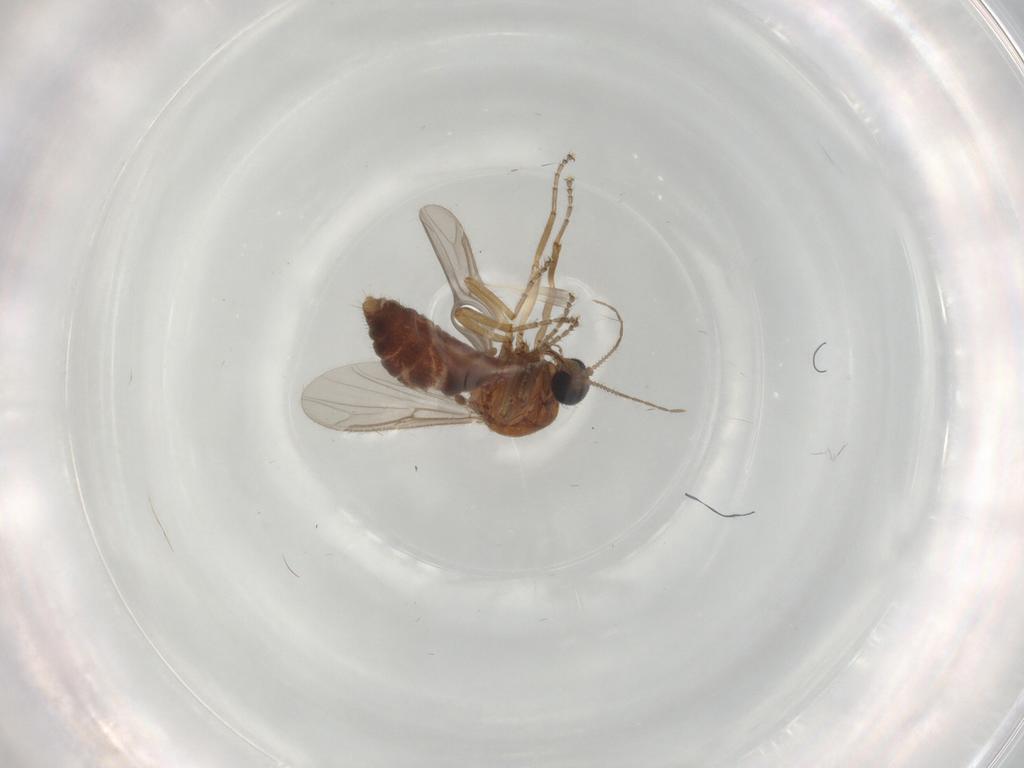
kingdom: Animalia
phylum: Arthropoda
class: Insecta
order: Diptera
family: Ceratopogonidae
